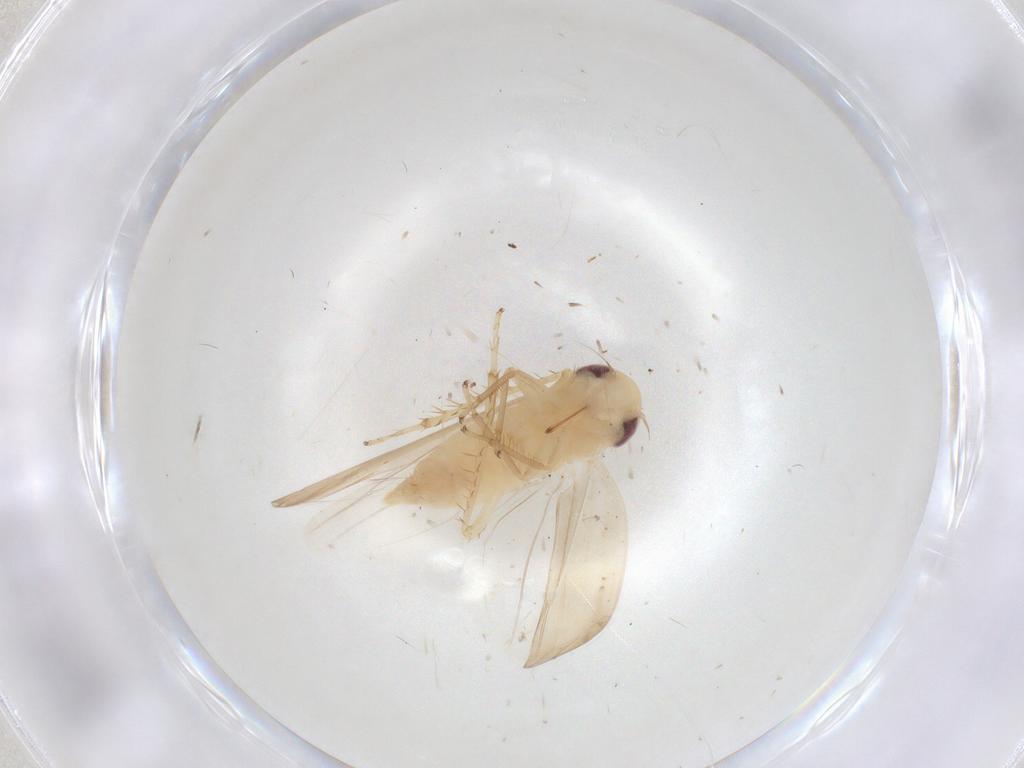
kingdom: Animalia
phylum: Arthropoda
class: Insecta
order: Hemiptera
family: Cicadellidae
